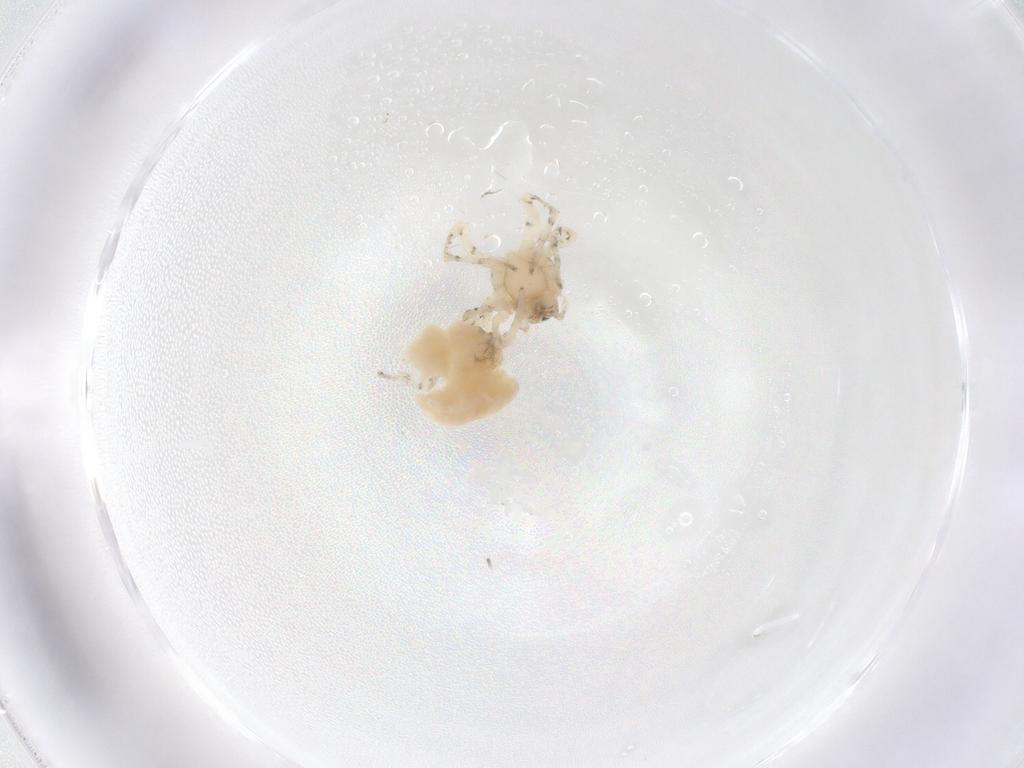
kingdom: Animalia
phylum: Arthropoda
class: Arachnida
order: Araneae
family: Anyphaenidae
